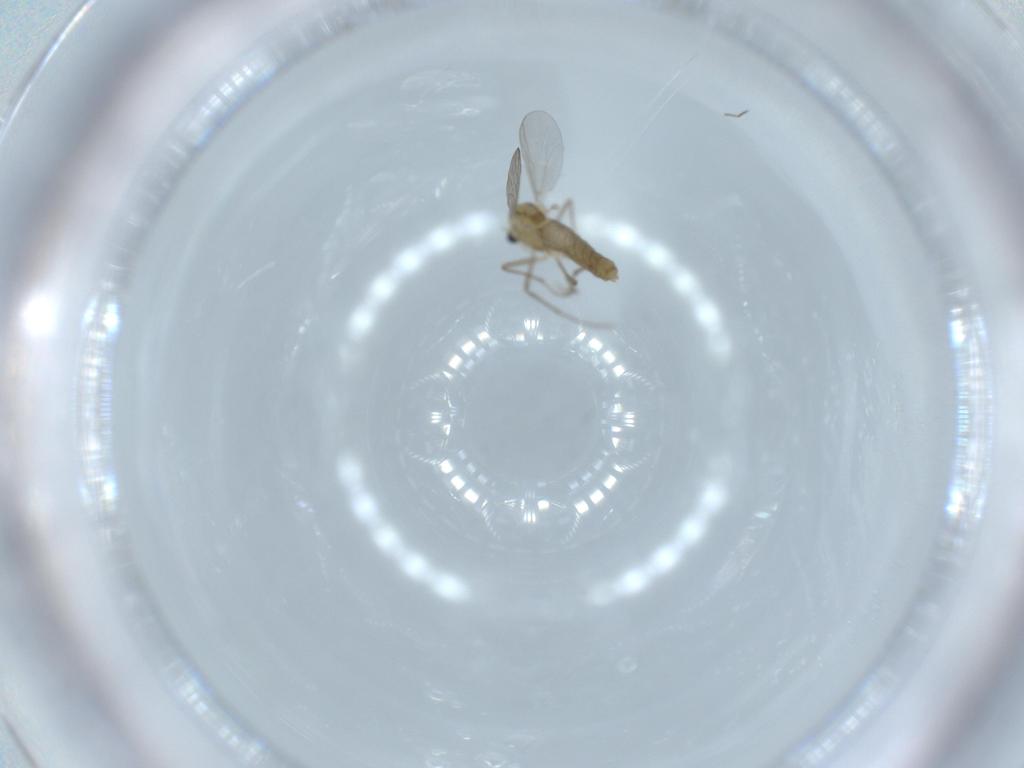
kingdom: Animalia
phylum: Arthropoda
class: Insecta
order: Diptera
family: Chironomidae
